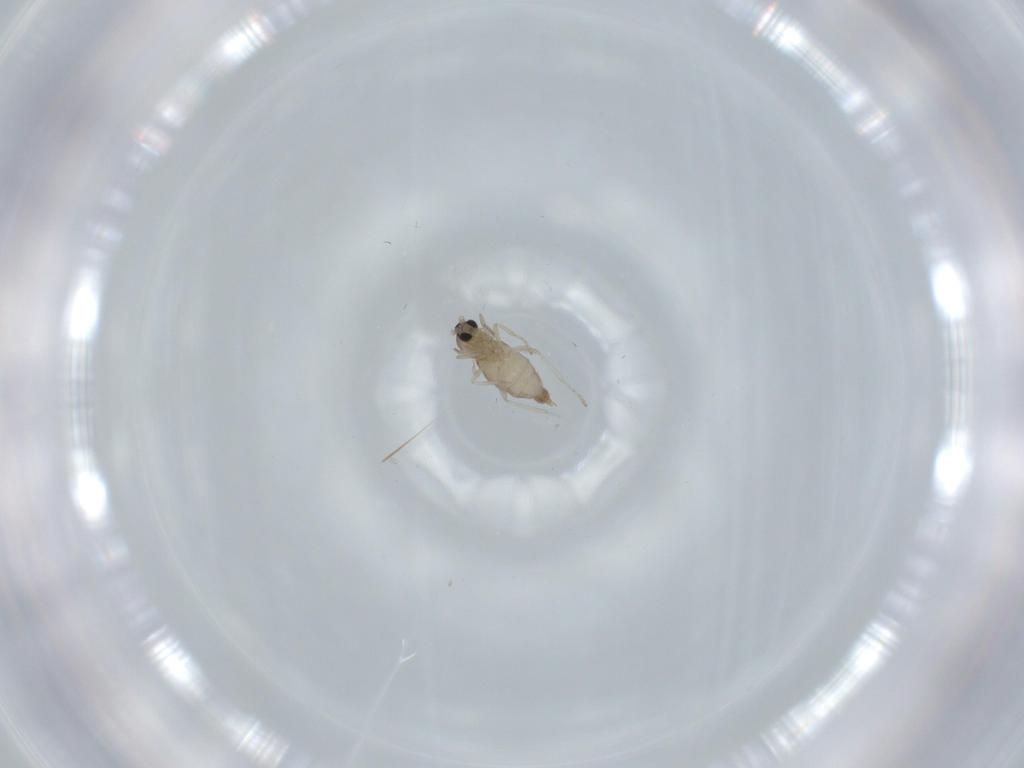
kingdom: Animalia
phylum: Arthropoda
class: Insecta
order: Diptera
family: Cecidomyiidae
